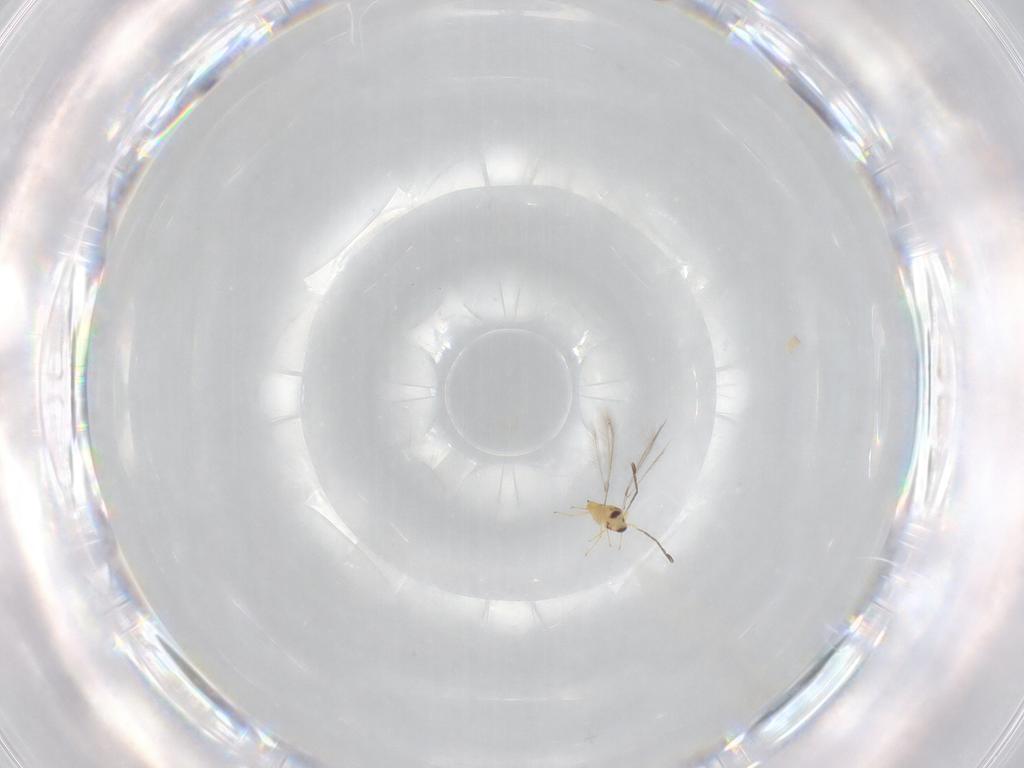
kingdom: Animalia
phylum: Arthropoda
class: Insecta
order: Hymenoptera
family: Mymaridae
